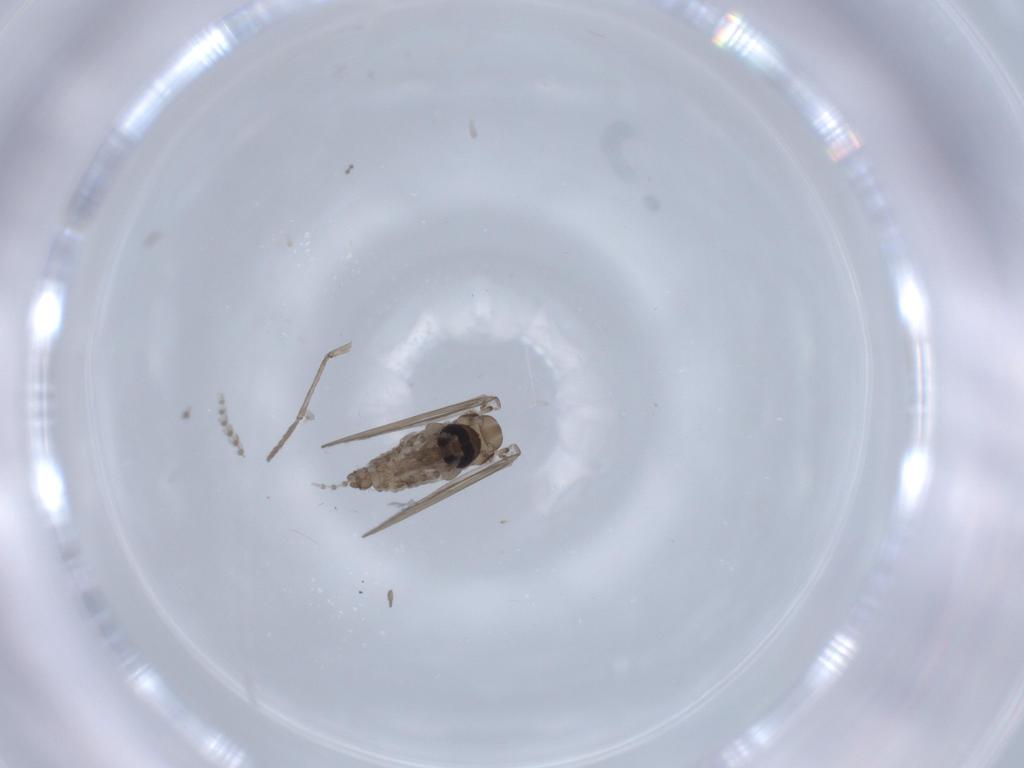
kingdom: Animalia
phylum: Arthropoda
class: Insecta
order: Diptera
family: Psychodidae
